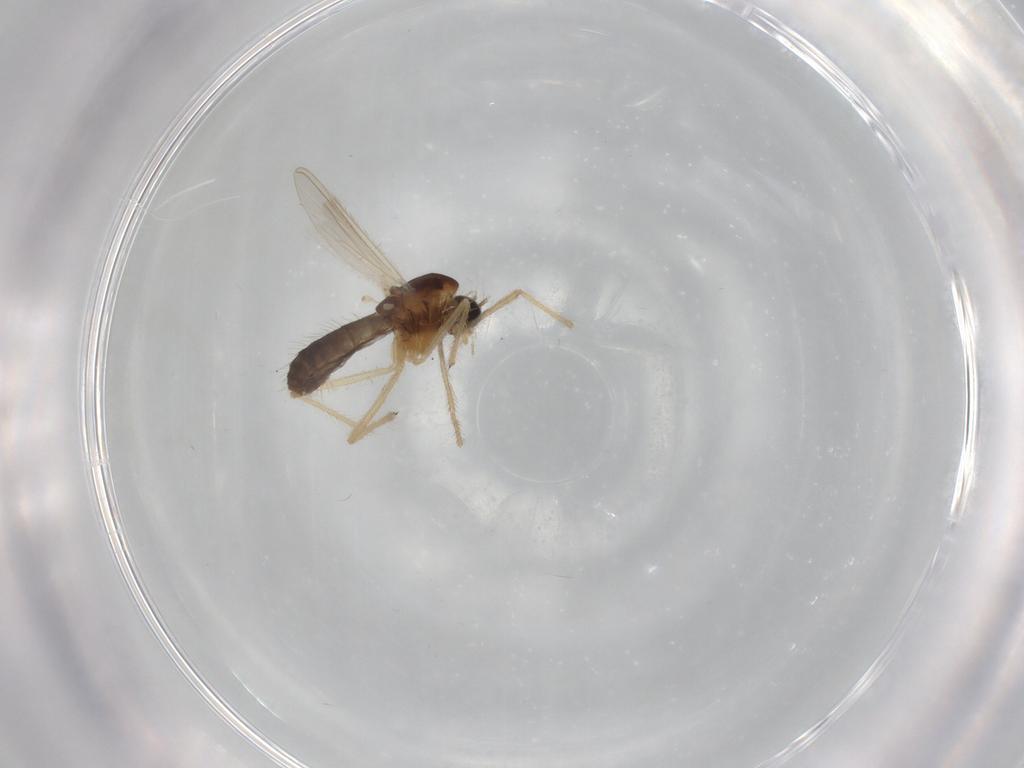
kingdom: Animalia
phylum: Arthropoda
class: Insecta
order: Diptera
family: Chironomidae
